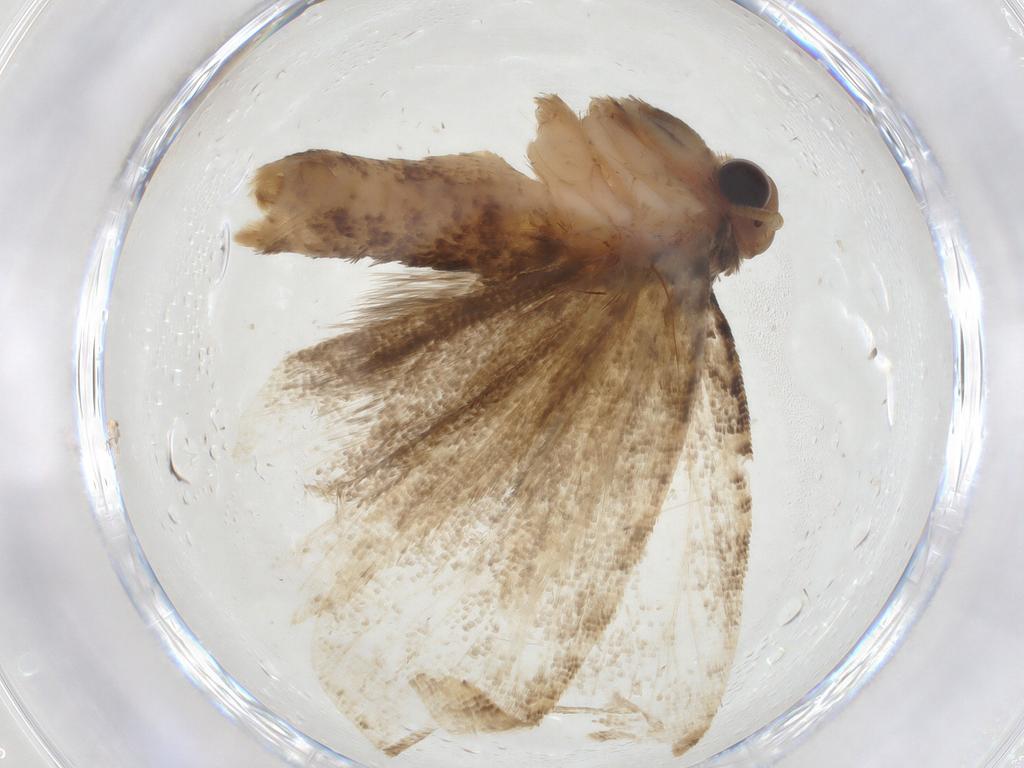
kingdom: Animalia
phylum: Arthropoda
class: Insecta
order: Lepidoptera
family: Tortricidae
